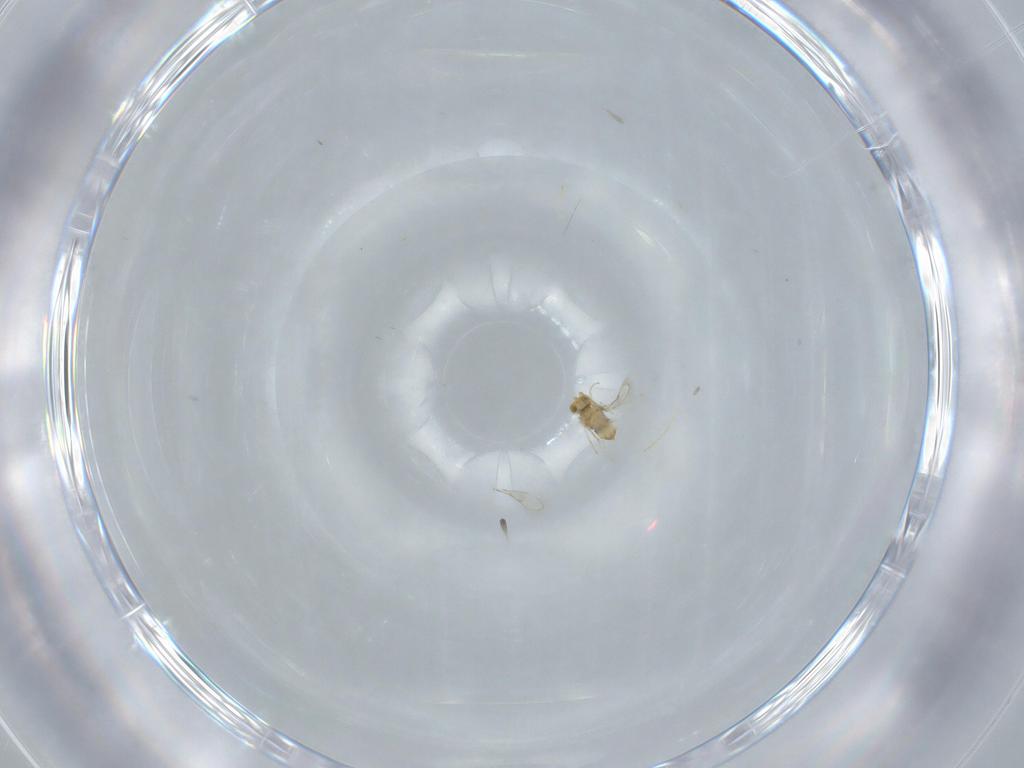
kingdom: Animalia
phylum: Arthropoda
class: Insecta
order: Hymenoptera
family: Aphelinidae
